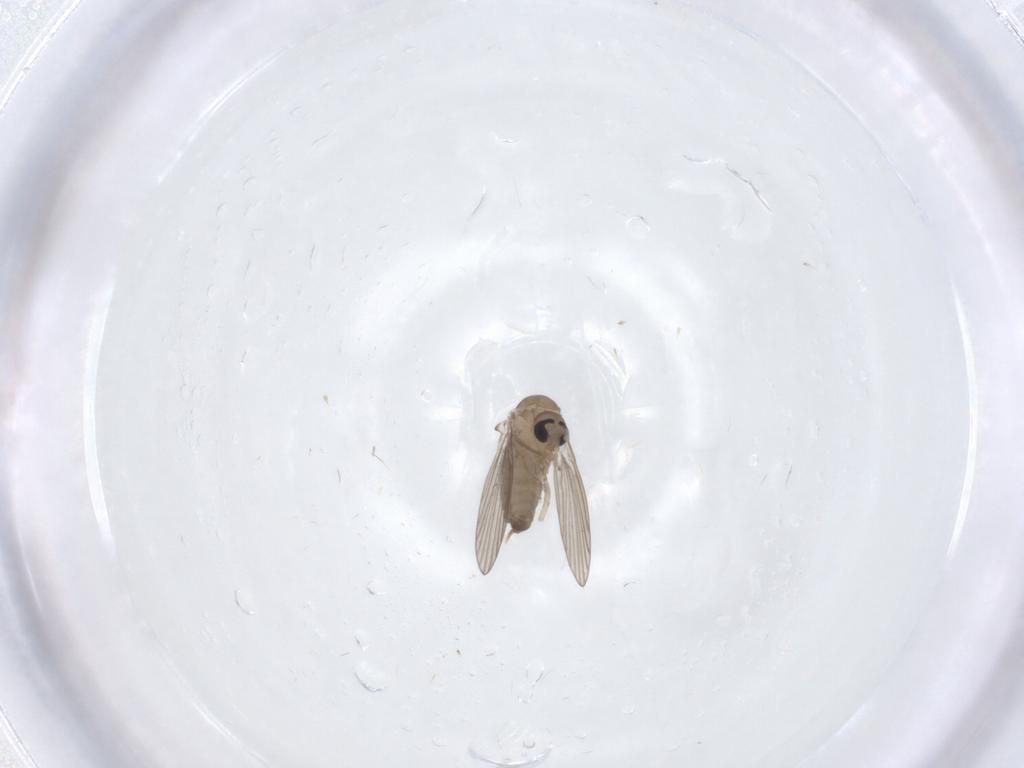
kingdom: Animalia
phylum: Arthropoda
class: Insecta
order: Diptera
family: Psychodidae
